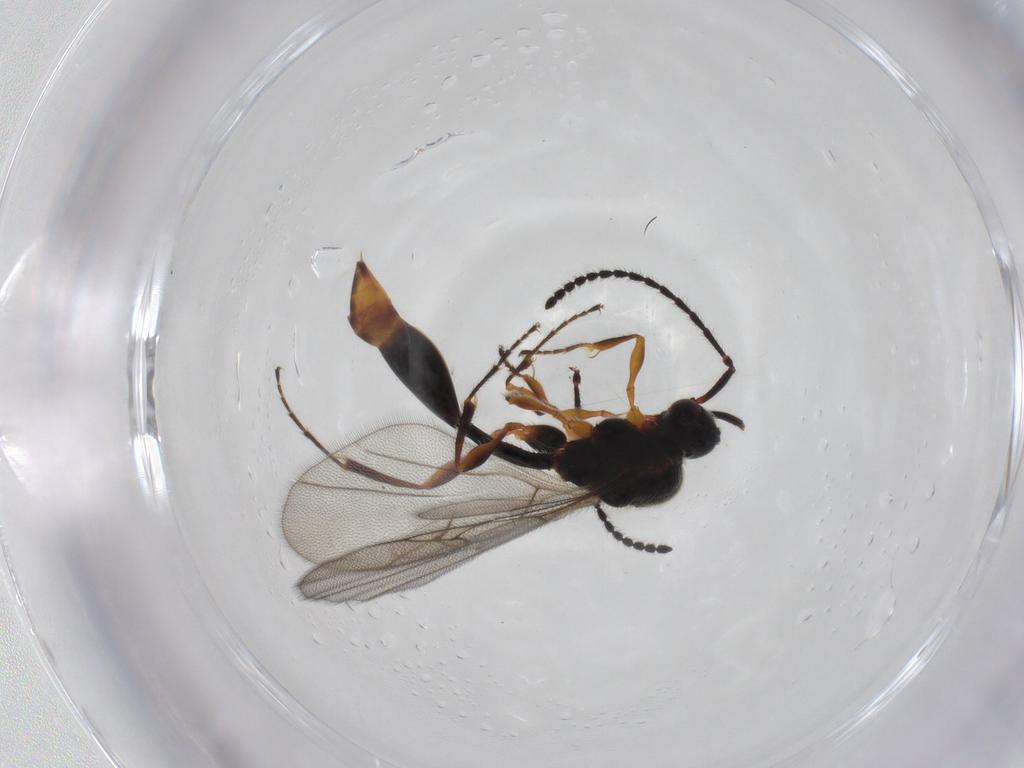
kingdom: Animalia
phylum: Arthropoda
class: Insecta
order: Hymenoptera
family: Diapriidae
